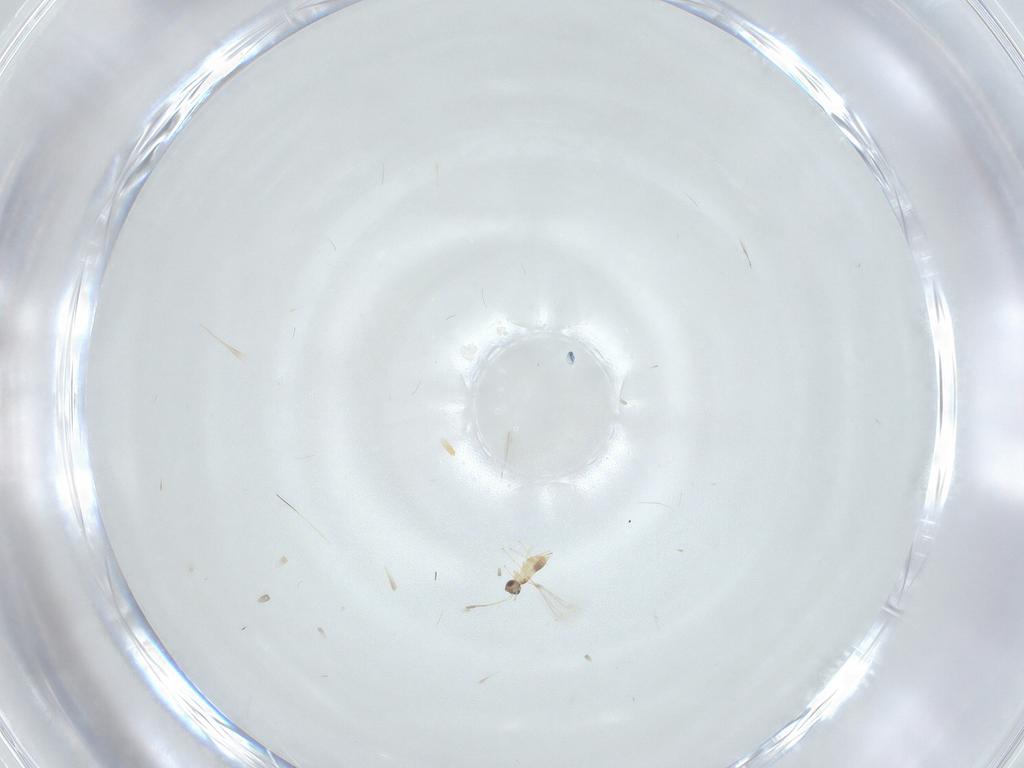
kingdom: Animalia
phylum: Arthropoda
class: Insecta
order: Hymenoptera
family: Mymaridae
